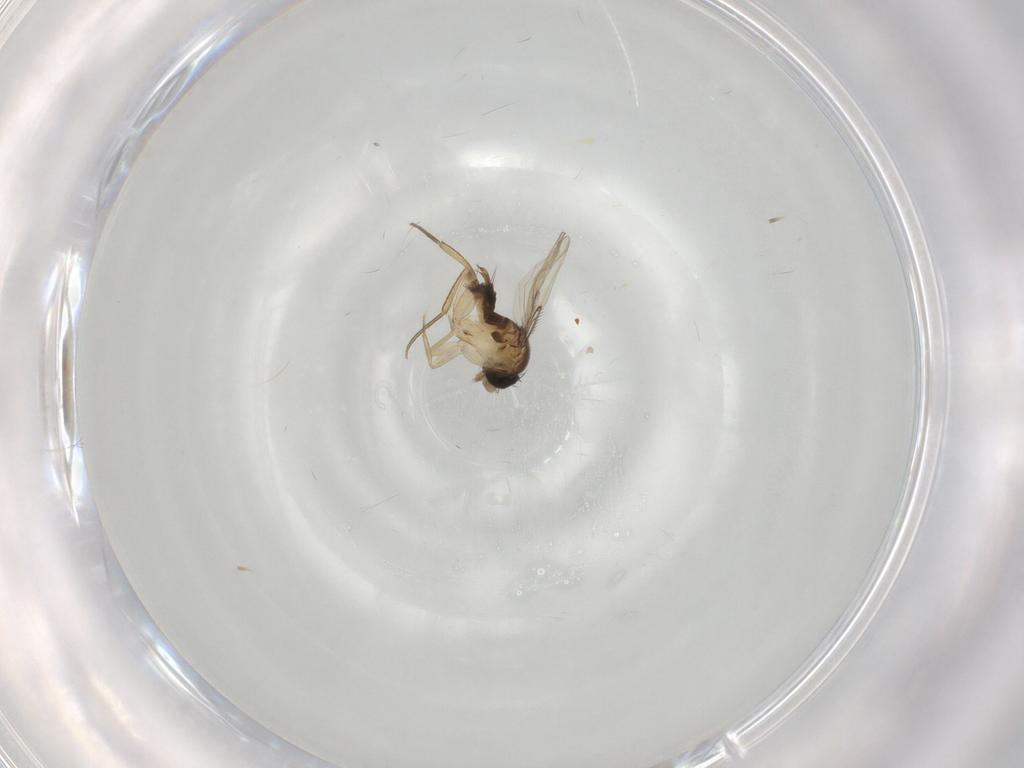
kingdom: Animalia
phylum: Arthropoda
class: Insecta
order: Diptera
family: Phoridae
